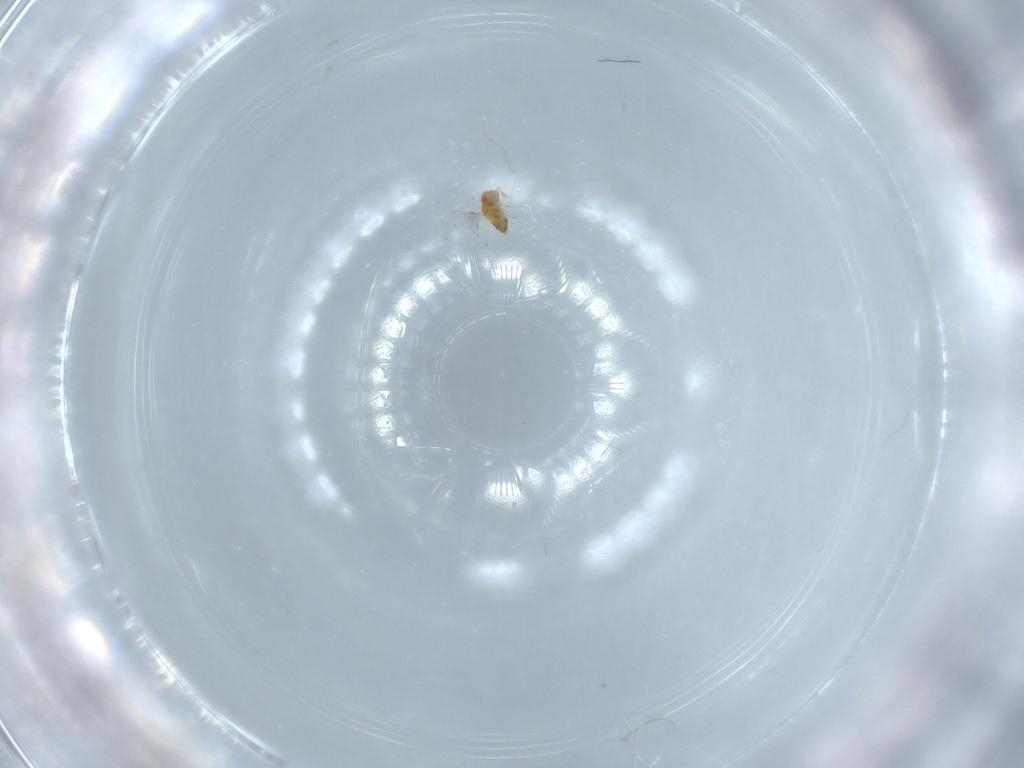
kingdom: Animalia
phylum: Arthropoda
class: Insecta
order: Hymenoptera
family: Trichogrammatidae
